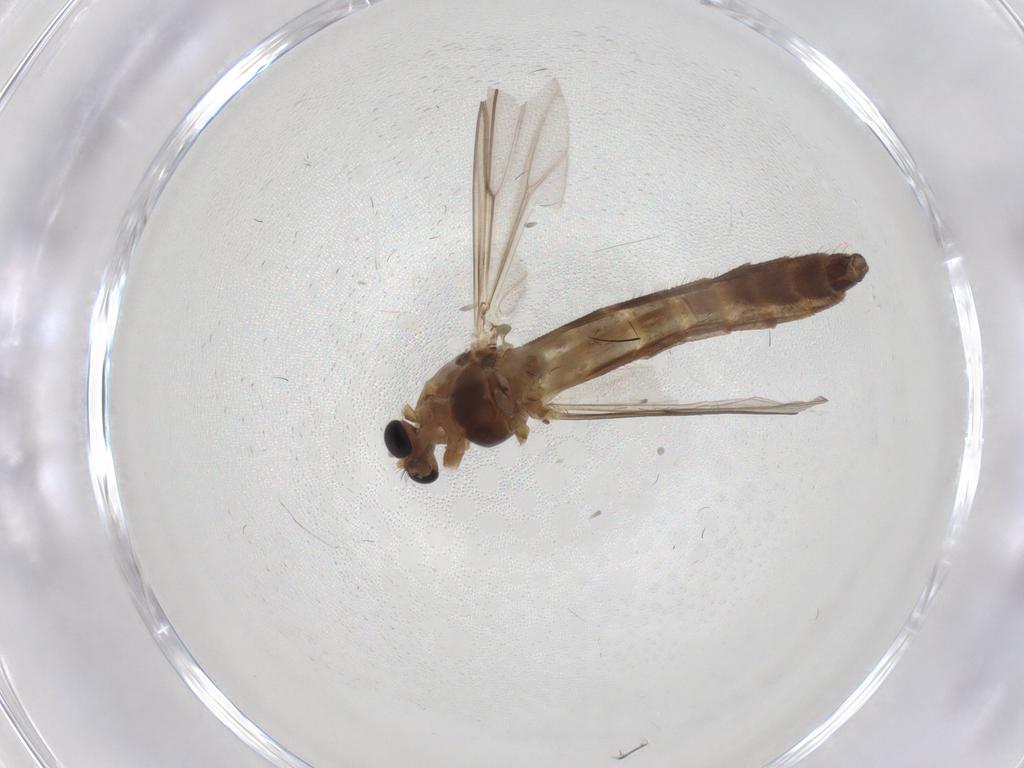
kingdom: Animalia
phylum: Arthropoda
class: Insecta
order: Diptera
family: Chironomidae
